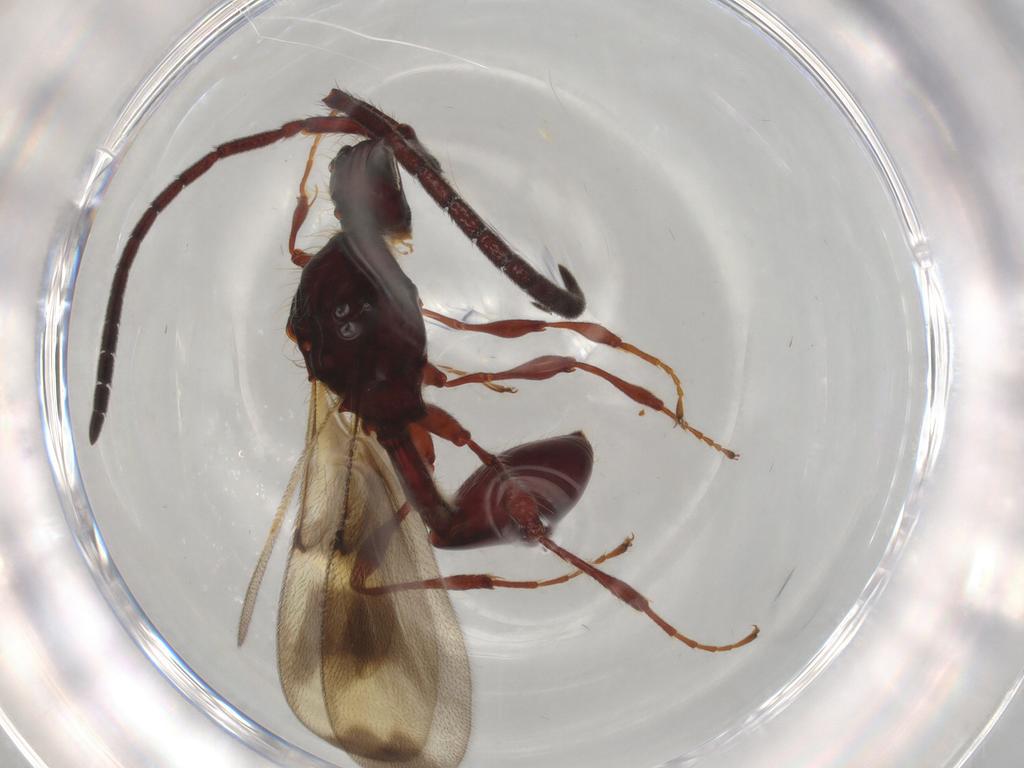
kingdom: Animalia
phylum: Arthropoda
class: Insecta
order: Hymenoptera
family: Diapriidae
